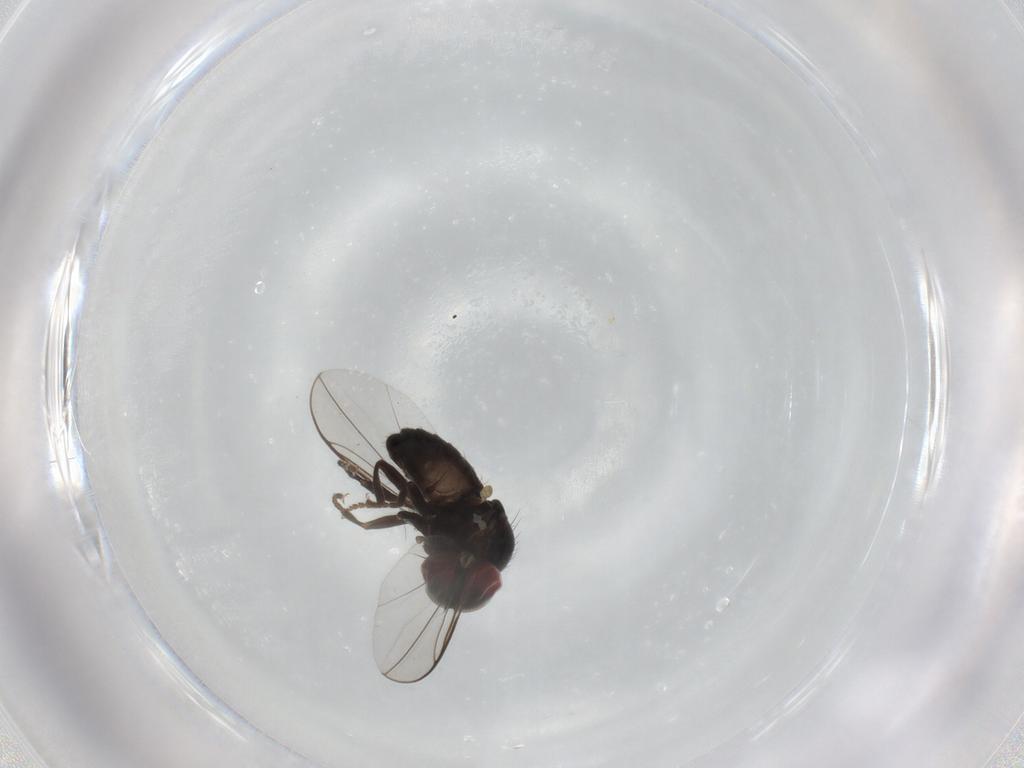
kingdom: Animalia
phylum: Arthropoda
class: Insecta
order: Diptera
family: Pipunculidae
